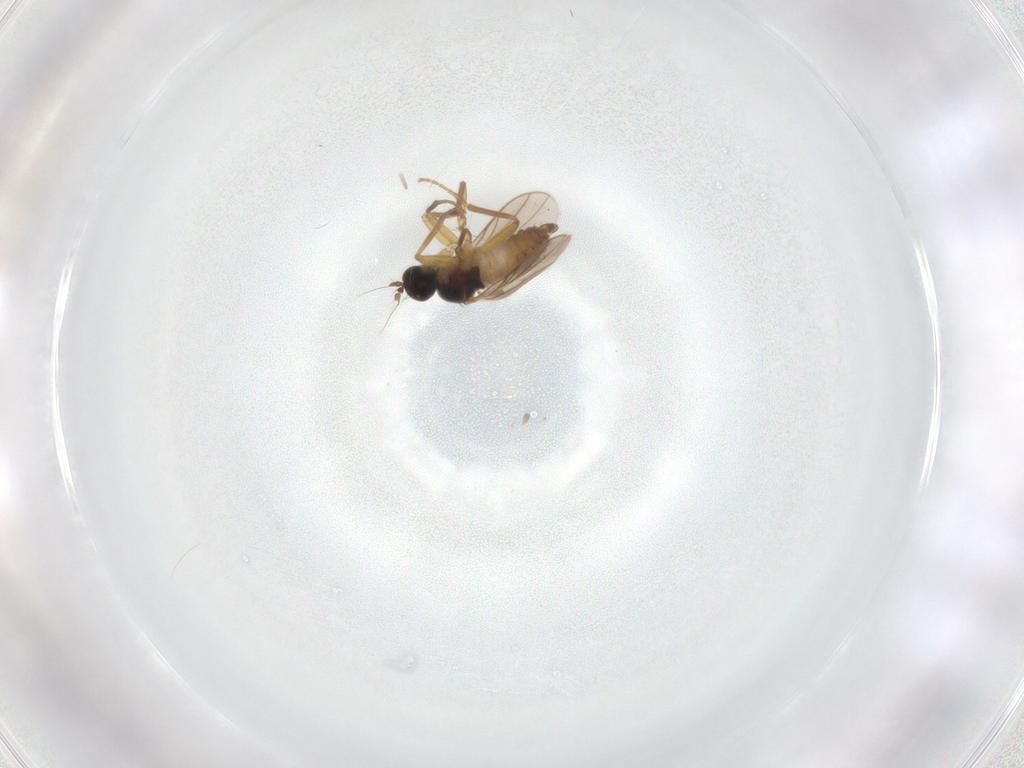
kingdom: Animalia
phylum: Arthropoda
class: Insecta
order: Diptera
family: Hybotidae
